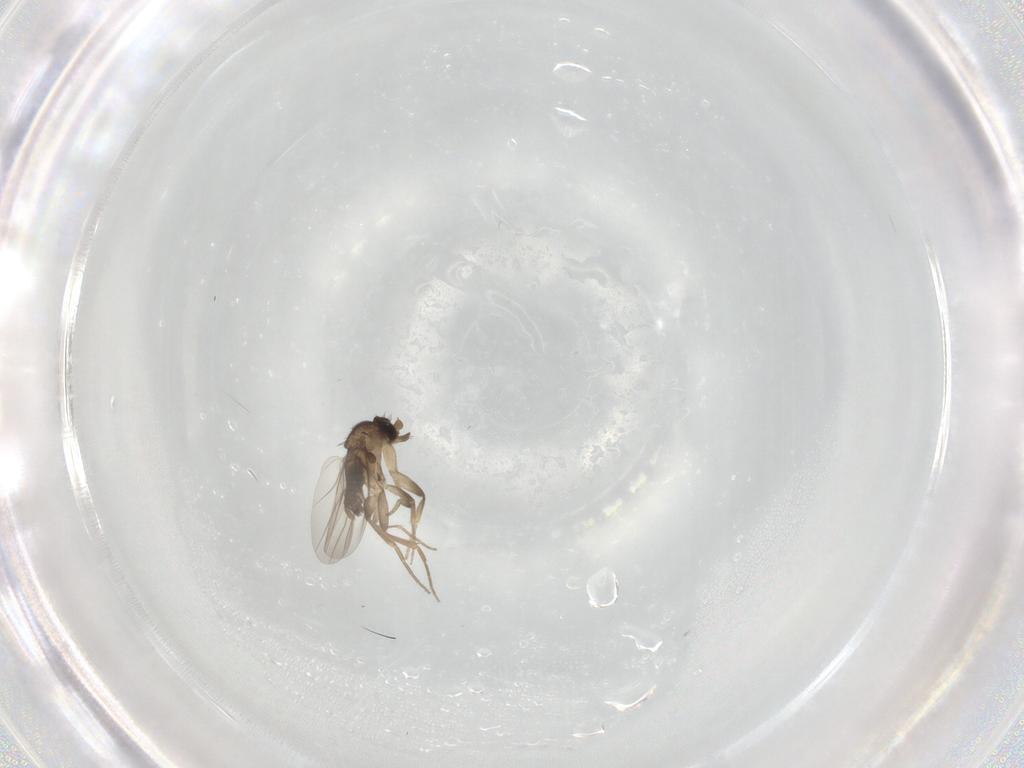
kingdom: Animalia
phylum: Arthropoda
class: Insecta
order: Diptera
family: Phoridae
